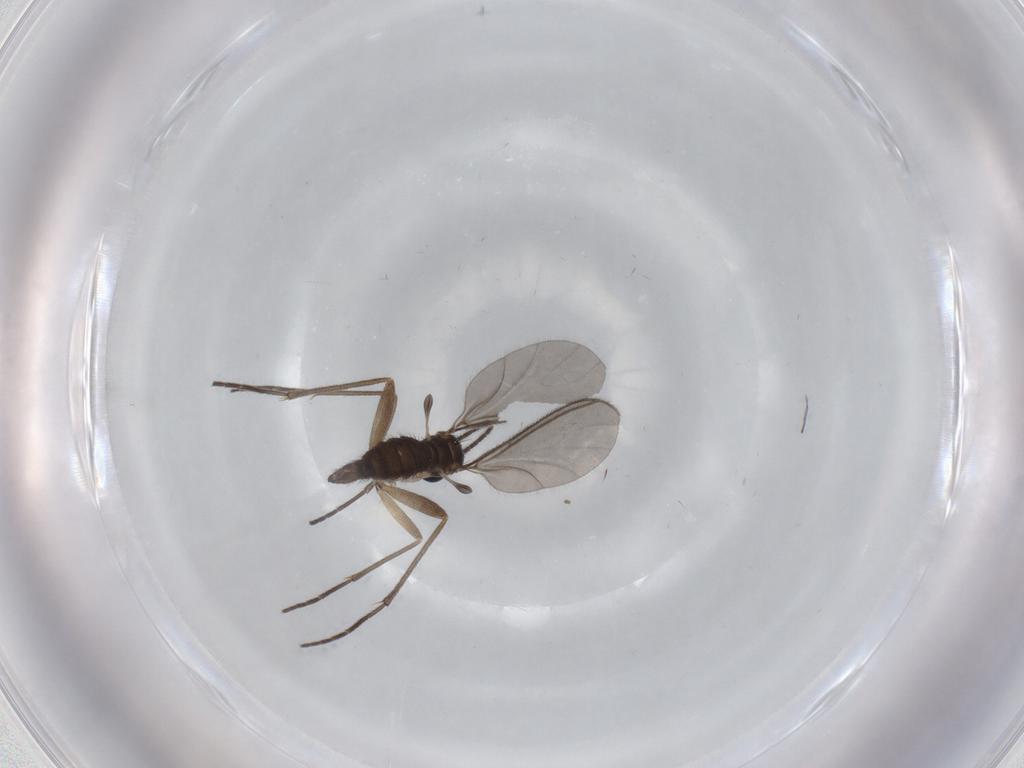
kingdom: Animalia
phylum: Arthropoda
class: Insecta
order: Diptera
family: Sciaridae
